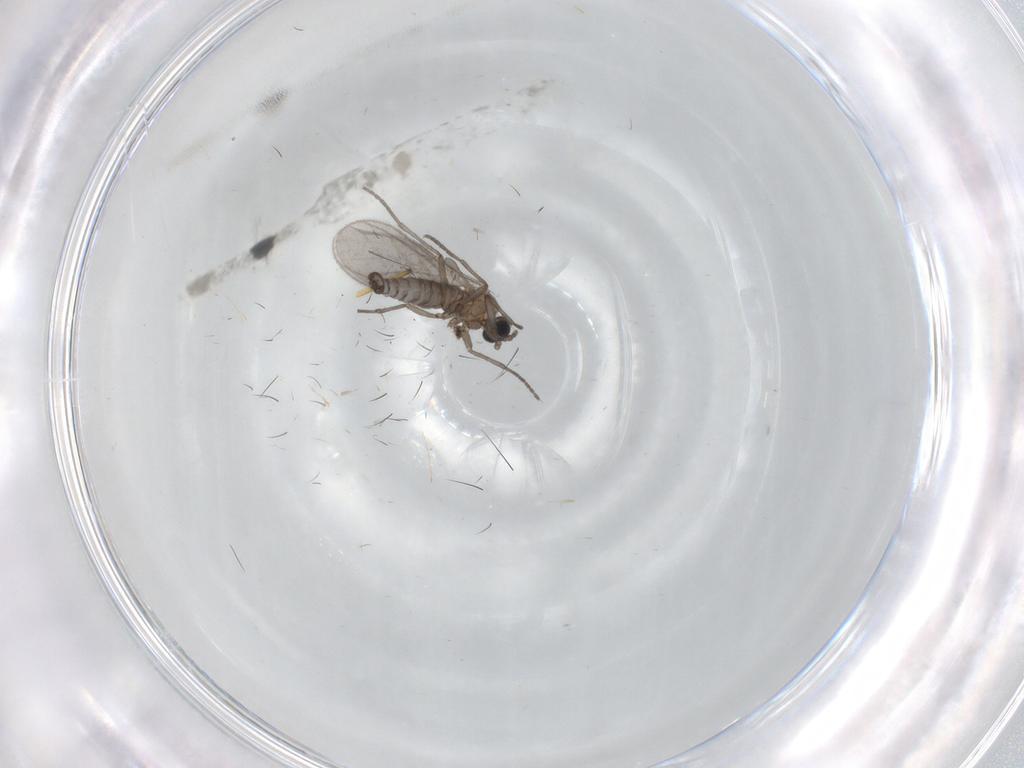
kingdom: Animalia
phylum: Arthropoda
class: Insecta
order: Diptera
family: Sciaridae
